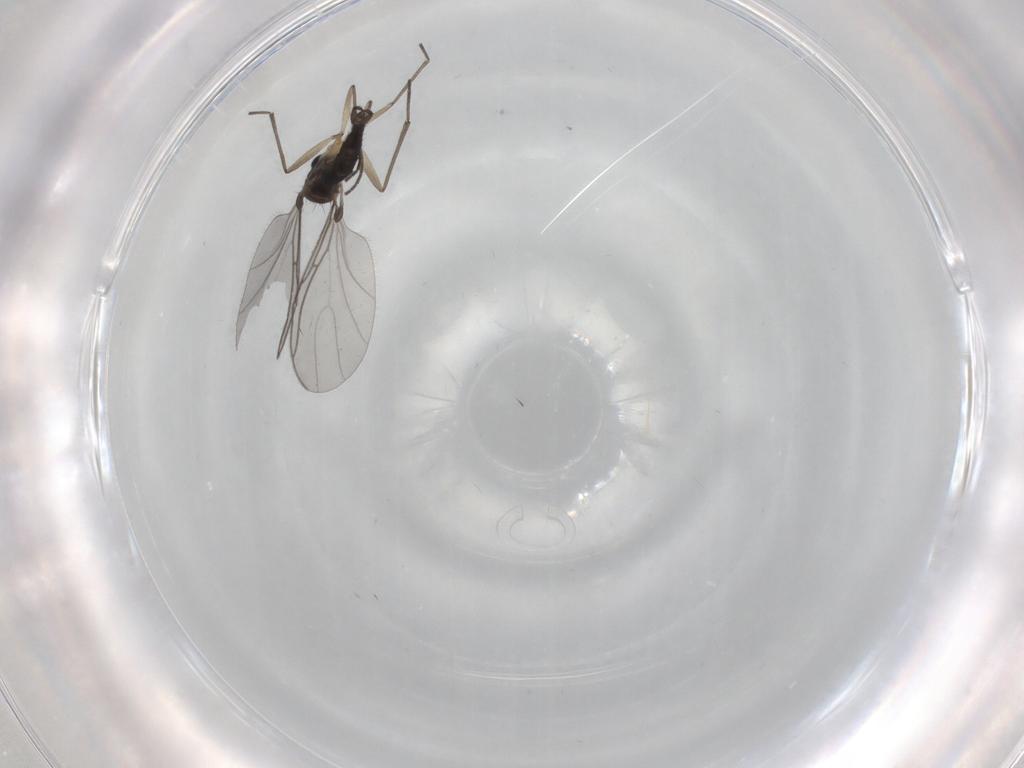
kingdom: Animalia
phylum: Arthropoda
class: Insecta
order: Diptera
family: Sciaridae
